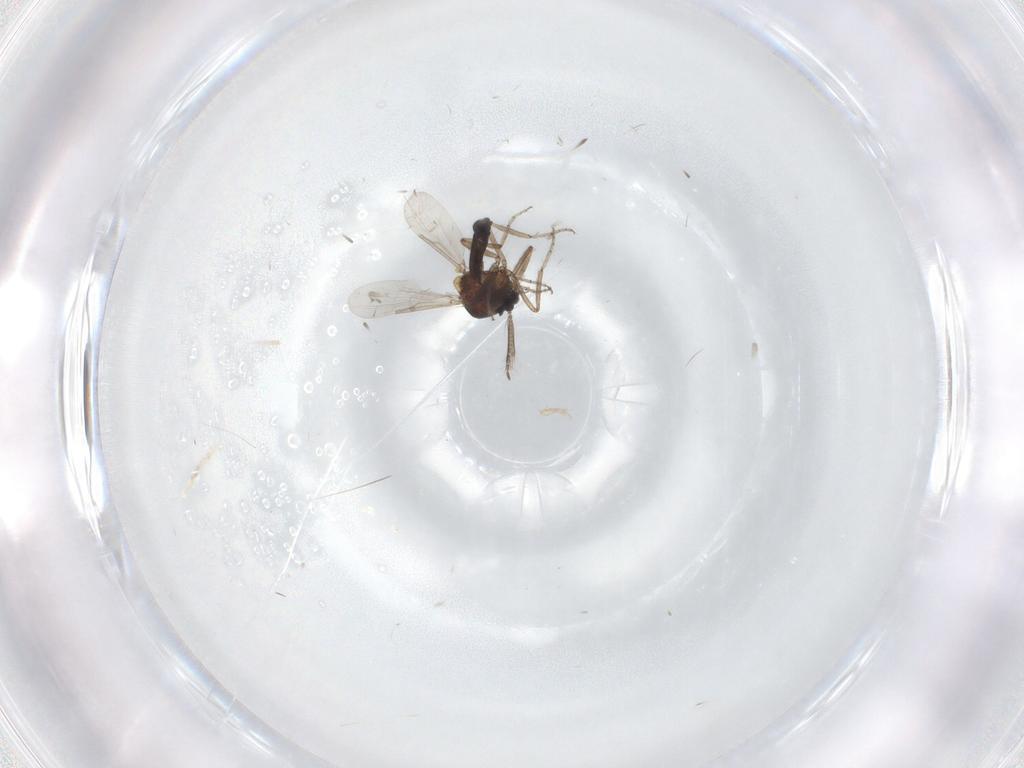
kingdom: Animalia
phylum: Arthropoda
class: Insecta
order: Diptera
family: Ceratopogonidae
